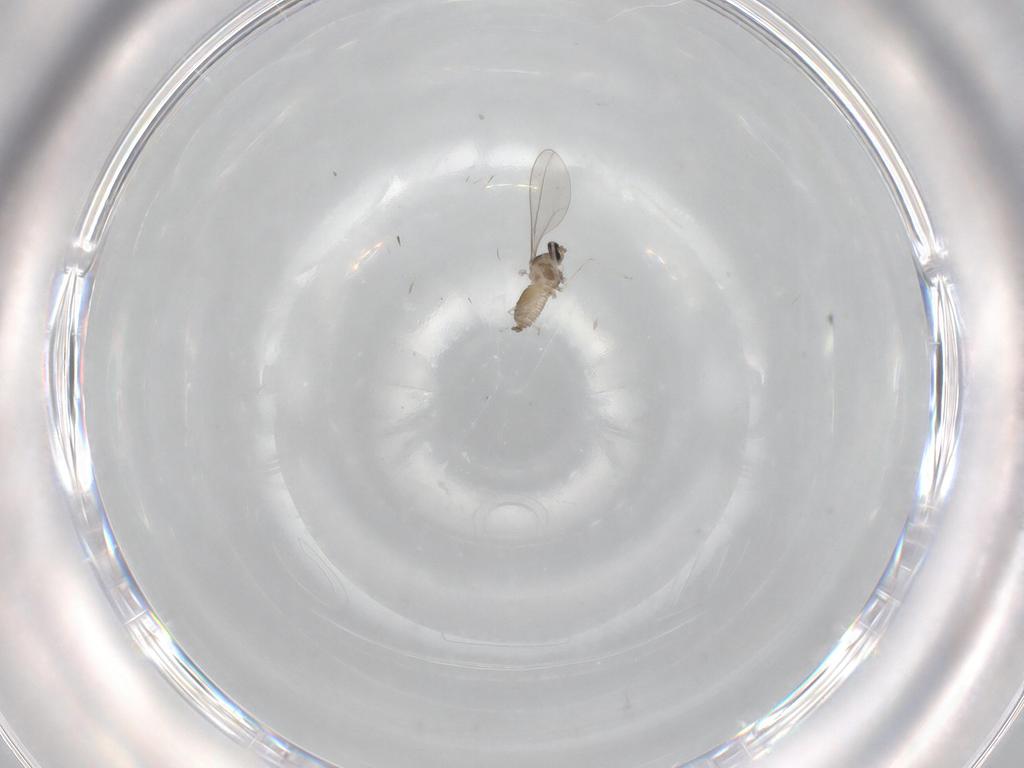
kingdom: Animalia
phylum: Arthropoda
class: Insecta
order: Diptera
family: Cecidomyiidae
